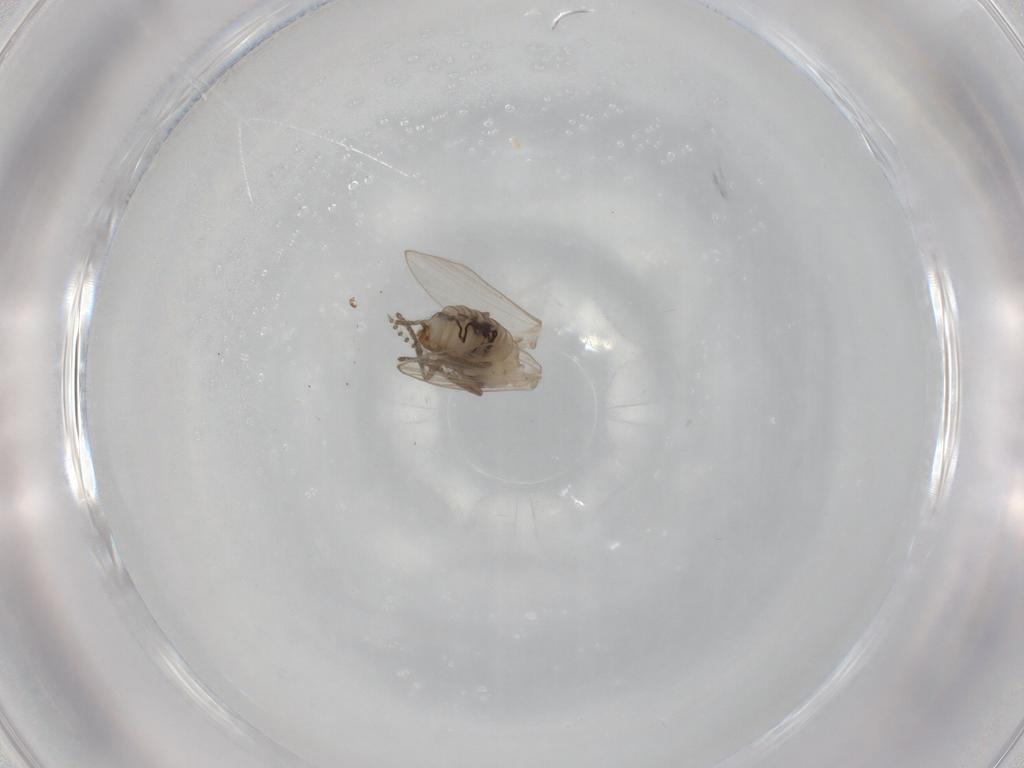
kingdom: Animalia
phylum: Arthropoda
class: Insecta
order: Diptera
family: Psychodidae
